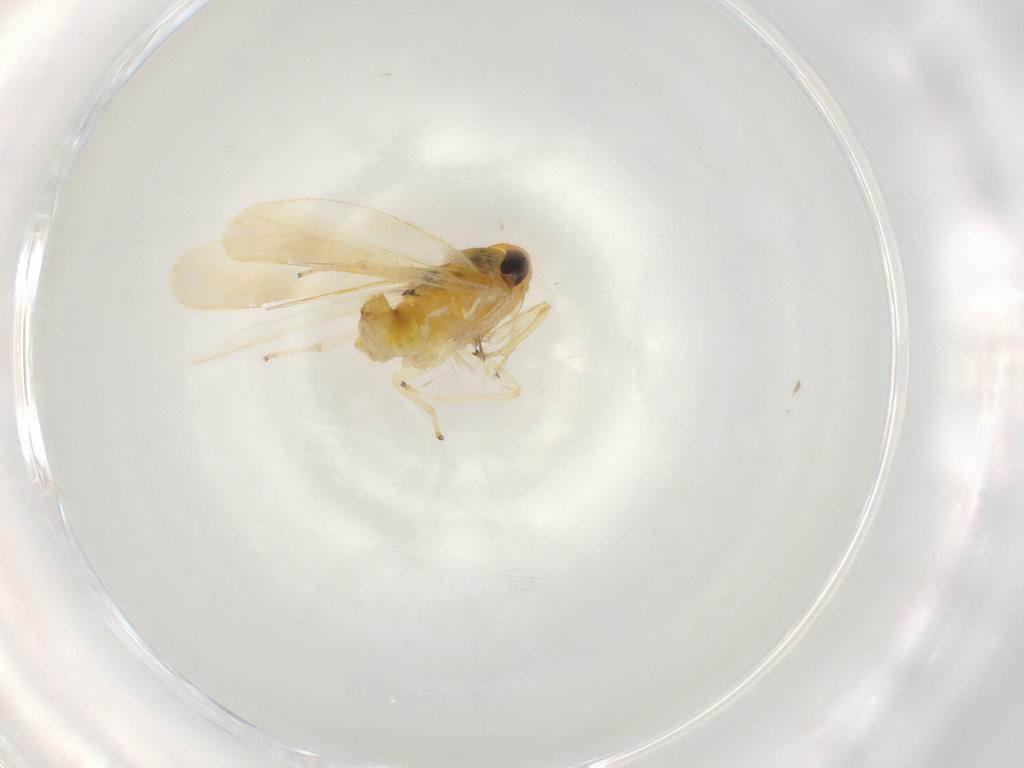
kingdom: Animalia
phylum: Arthropoda
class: Insecta
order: Hemiptera
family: Cicadellidae
